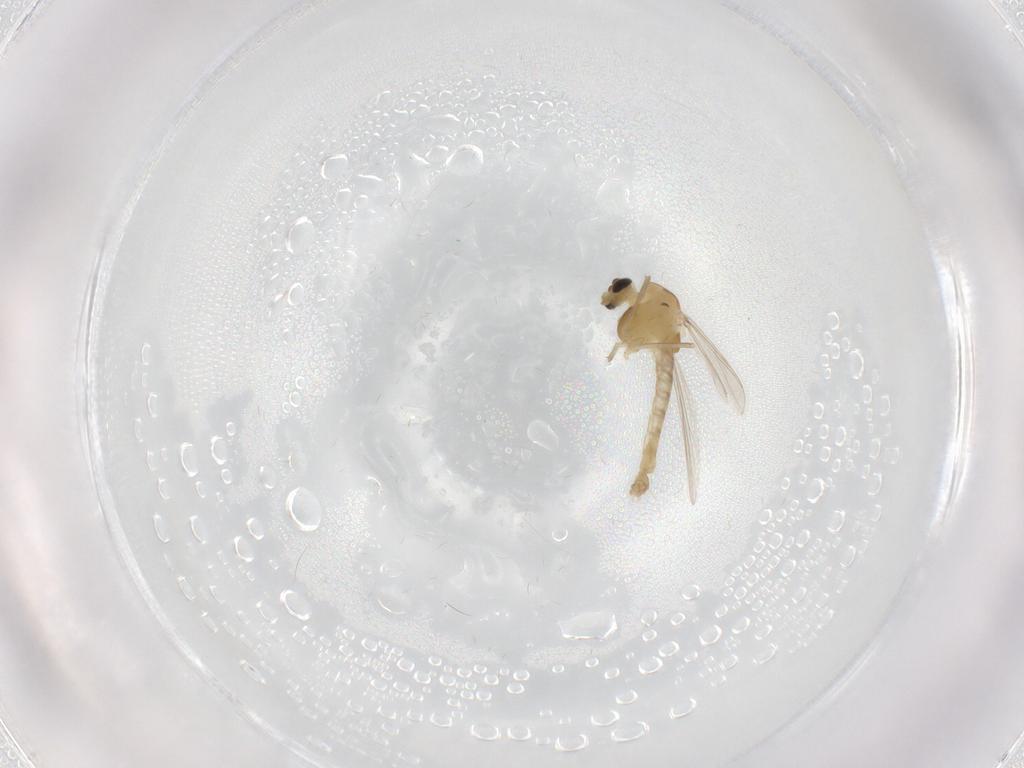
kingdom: Animalia
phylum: Arthropoda
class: Insecta
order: Diptera
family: Chironomidae
